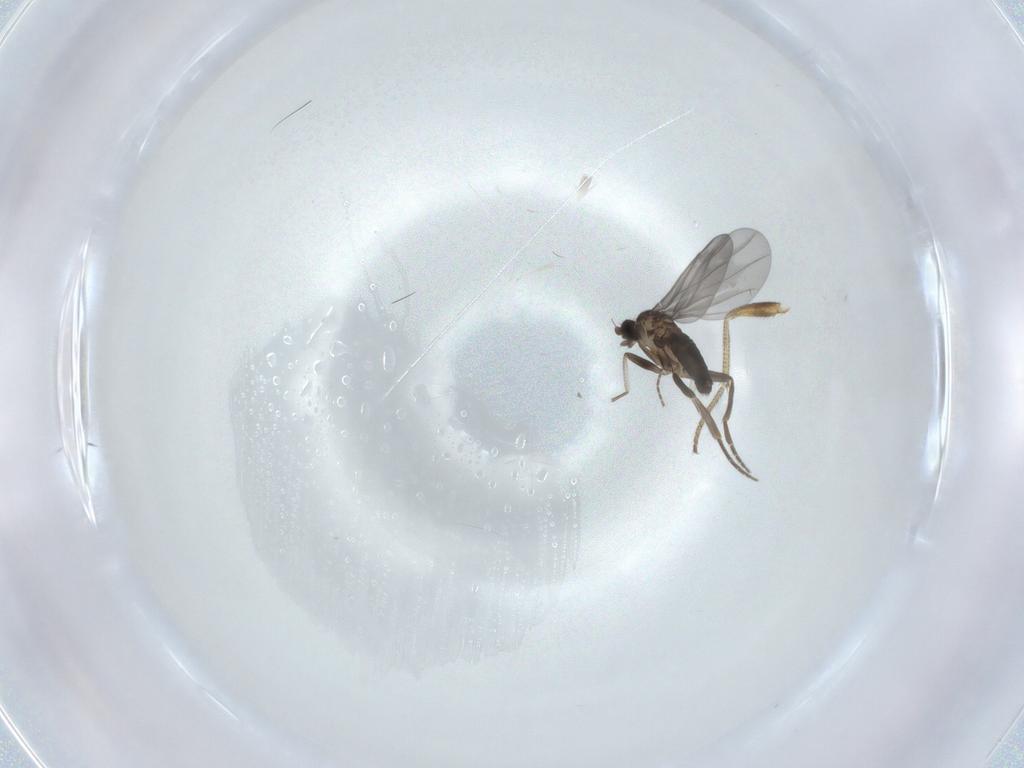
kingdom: Animalia
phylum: Arthropoda
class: Insecta
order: Diptera
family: Phoridae
